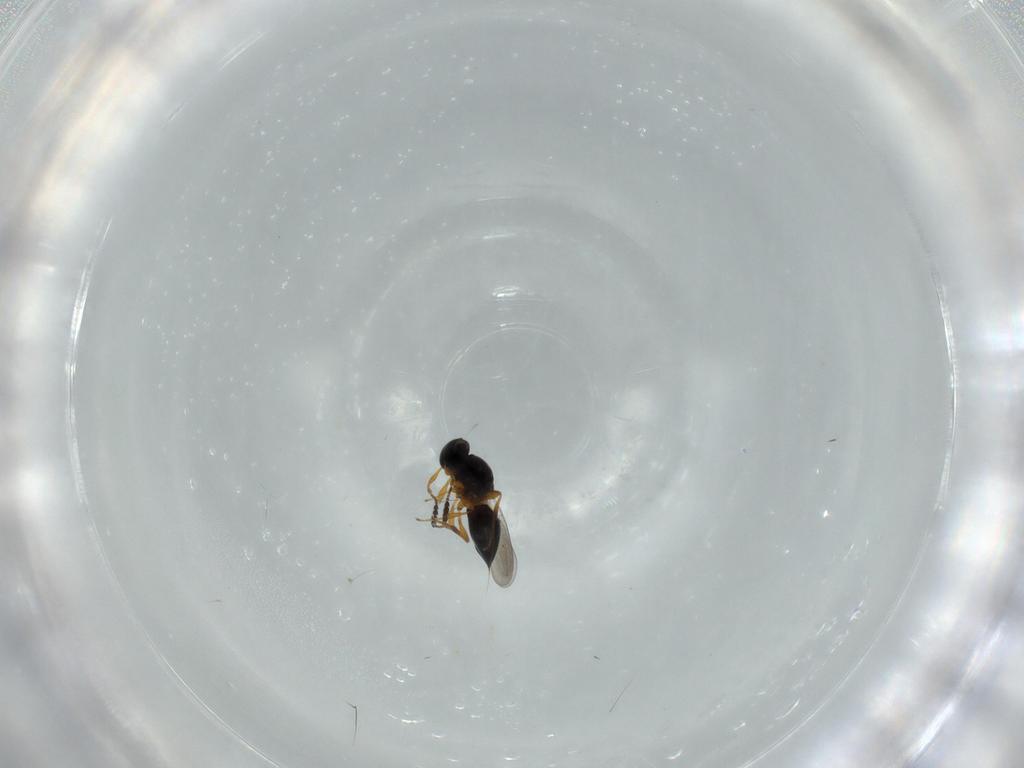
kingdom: Animalia
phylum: Arthropoda
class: Insecta
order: Hymenoptera
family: Platygastridae
